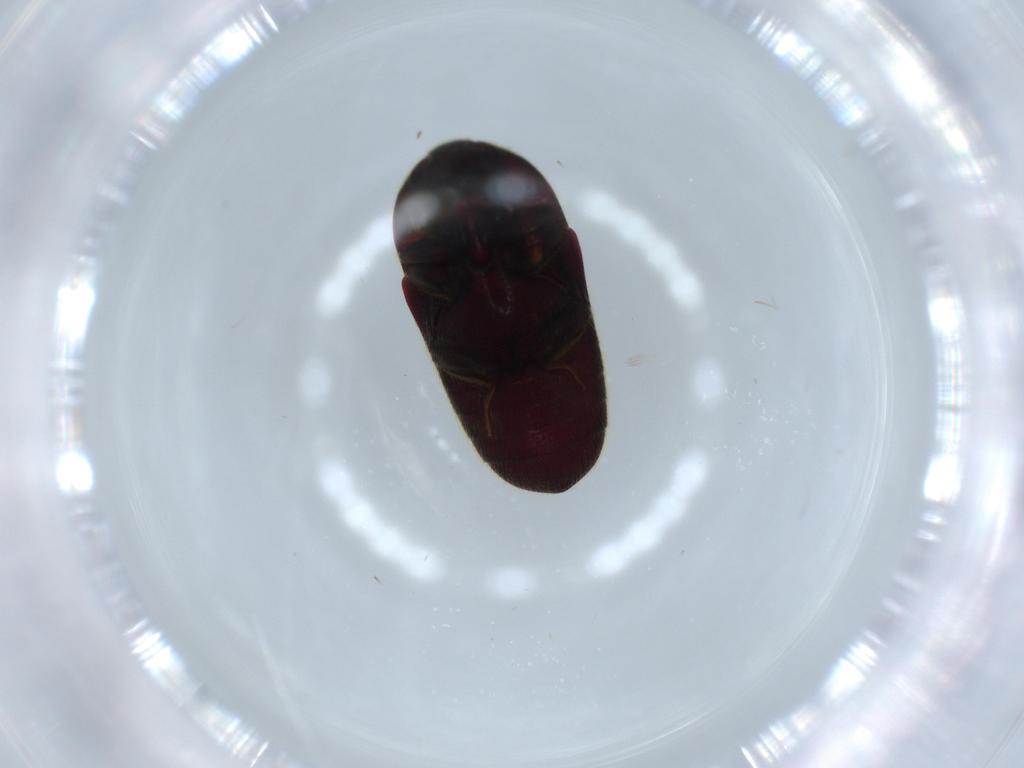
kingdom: Animalia
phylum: Arthropoda
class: Insecta
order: Coleoptera
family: Throscidae
